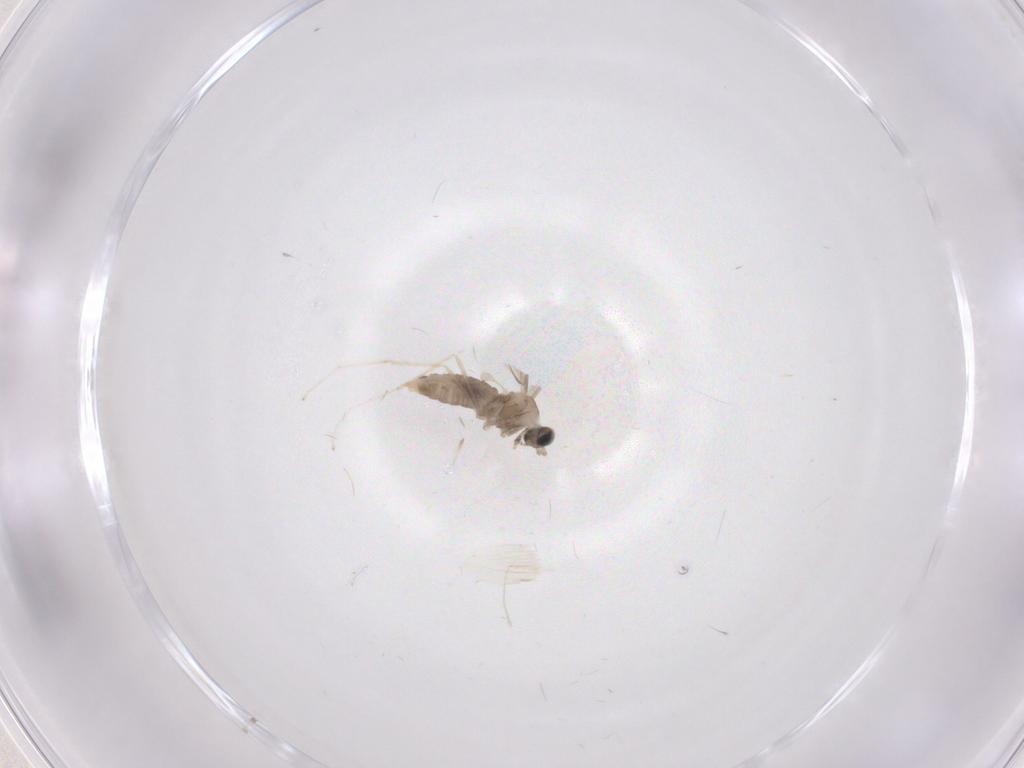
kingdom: Animalia
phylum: Arthropoda
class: Insecta
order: Diptera
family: Cecidomyiidae
